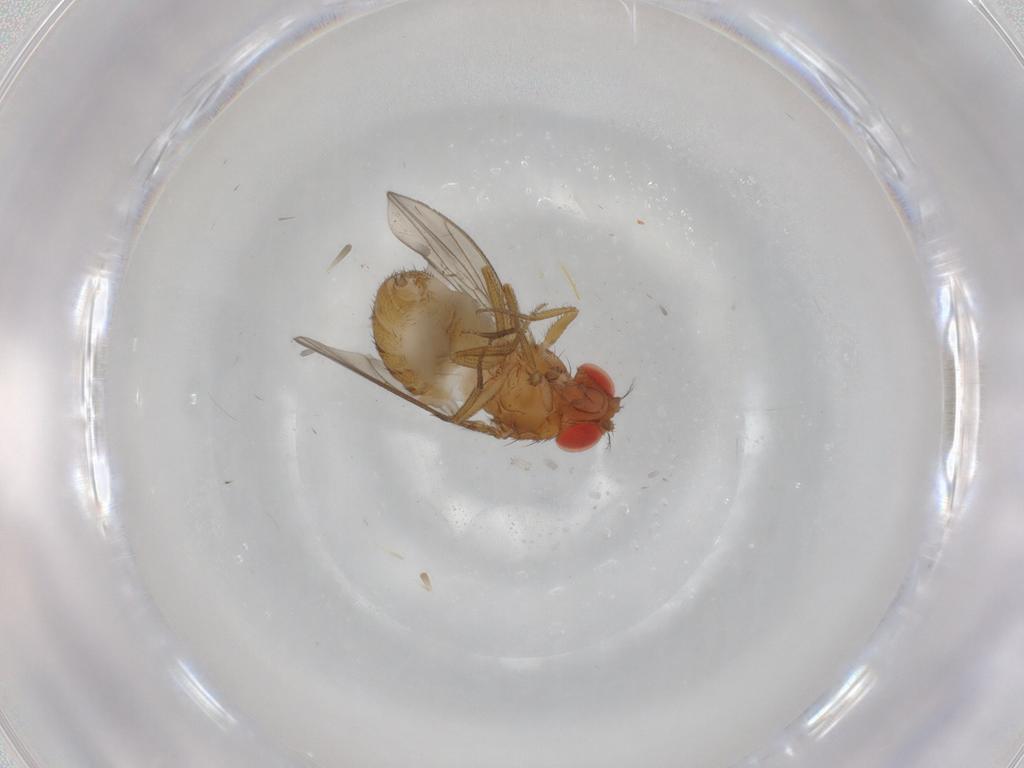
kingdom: Animalia
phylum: Arthropoda
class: Insecta
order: Diptera
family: Drosophilidae
